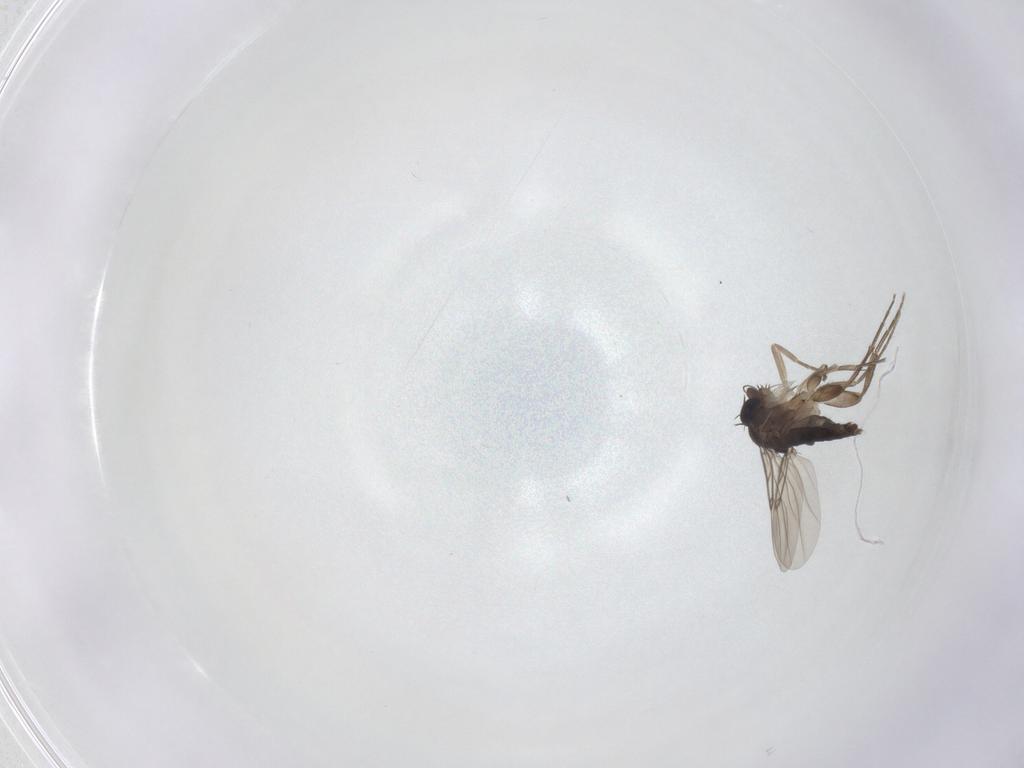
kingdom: Animalia
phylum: Arthropoda
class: Insecta
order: Diptera
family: Phoridae
